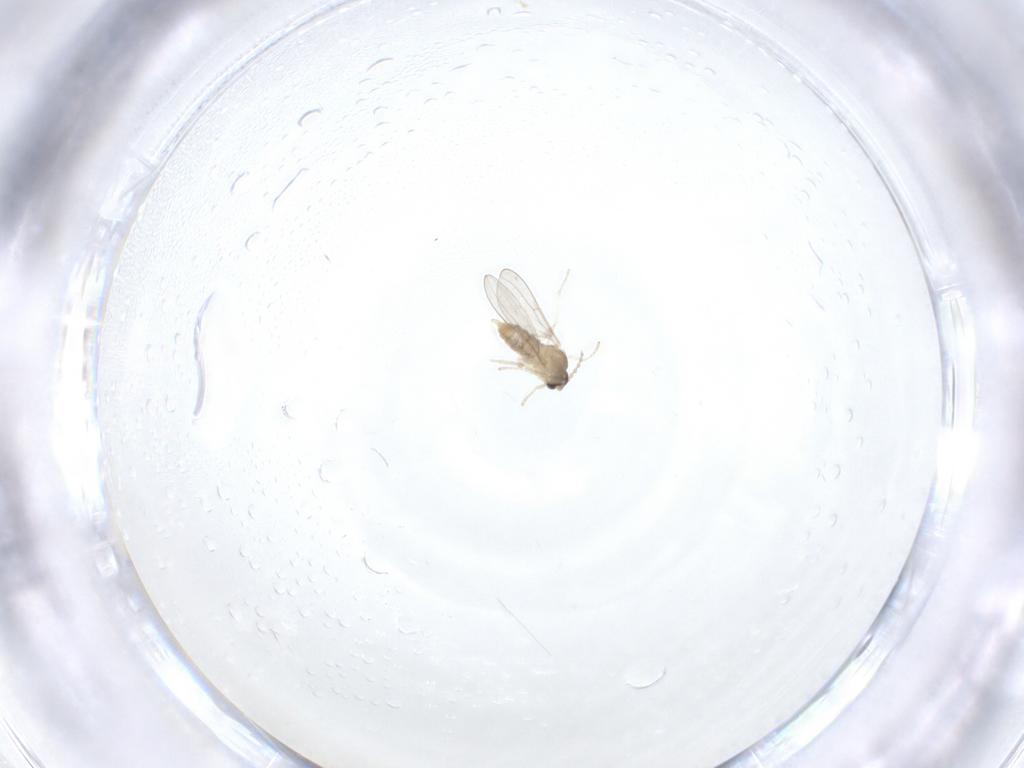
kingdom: Animalia
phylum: Arthropoda
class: Insecta
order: Diptera
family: Cecidomyiidae
